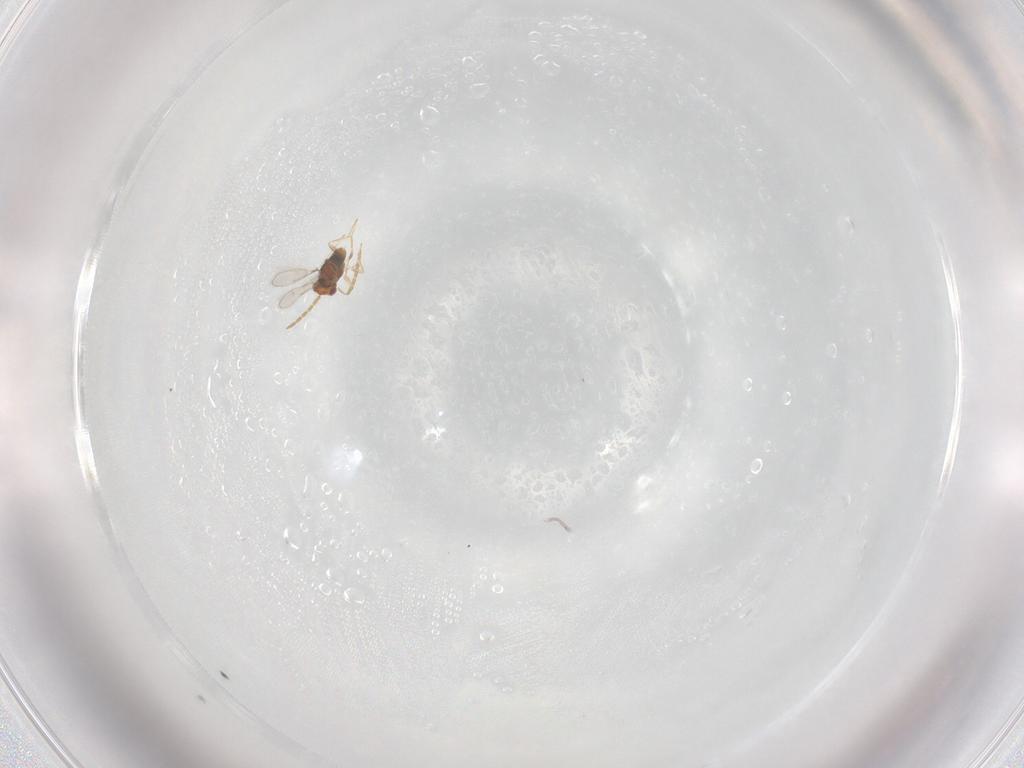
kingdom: Animalia
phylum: Arthropoda
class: Insecta
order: Hymenoptera
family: Aphelinidae
